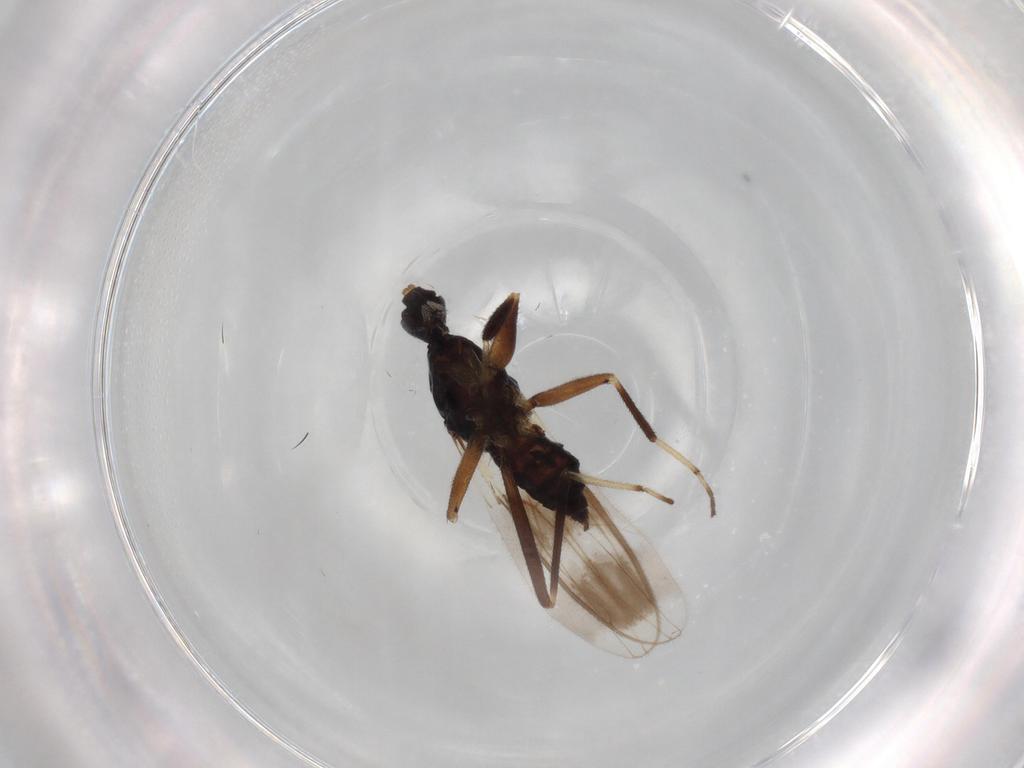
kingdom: Animalia
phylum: Arthropoda
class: Insecta
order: Diptera
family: Hybotidae
